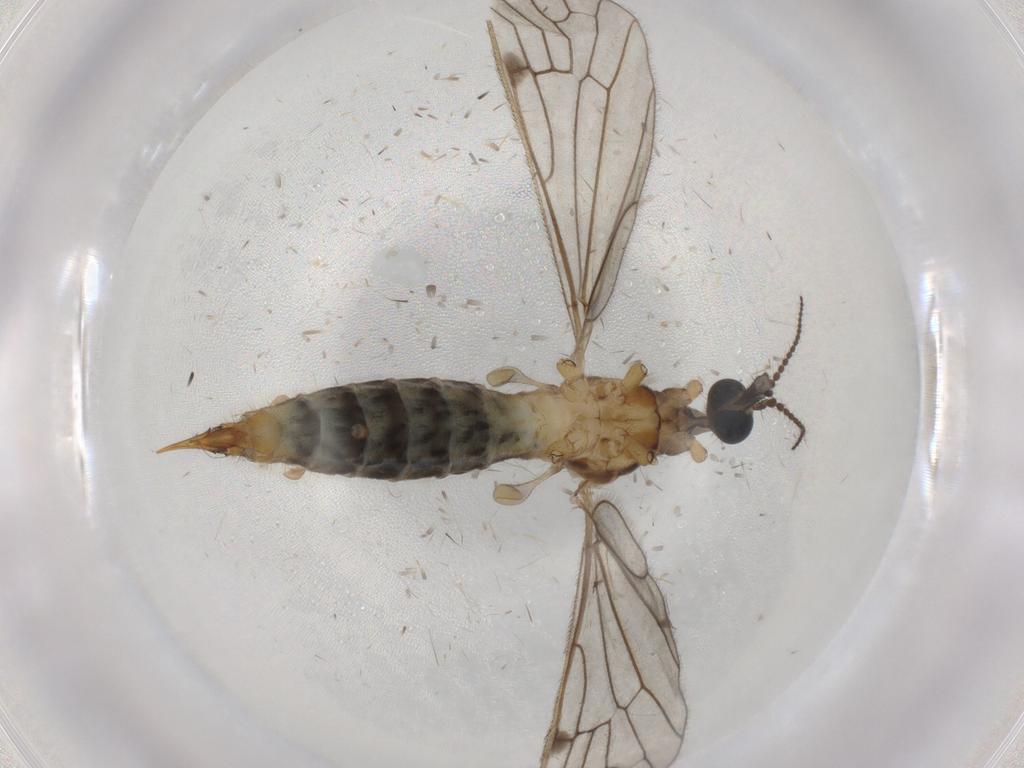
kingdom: Animalia
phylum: Arthropoda
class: Insecta
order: Diptera
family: Limoniidae
